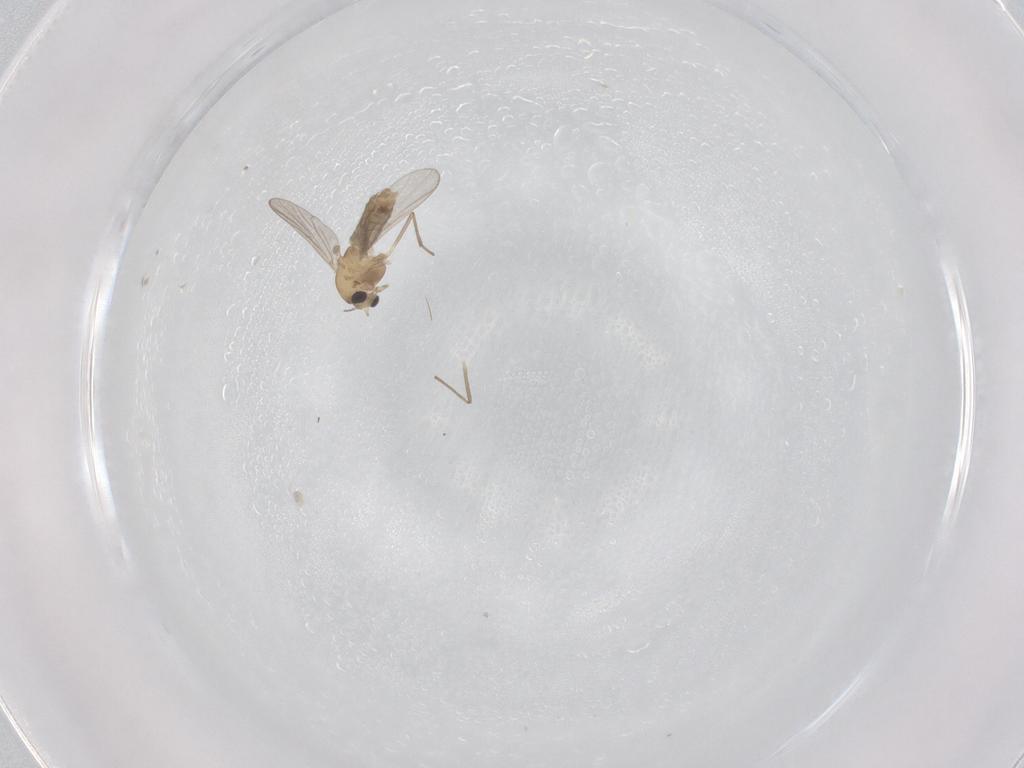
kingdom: Animalia
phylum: Arthropoda
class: Insecta
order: Diptera
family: Chironomidae
